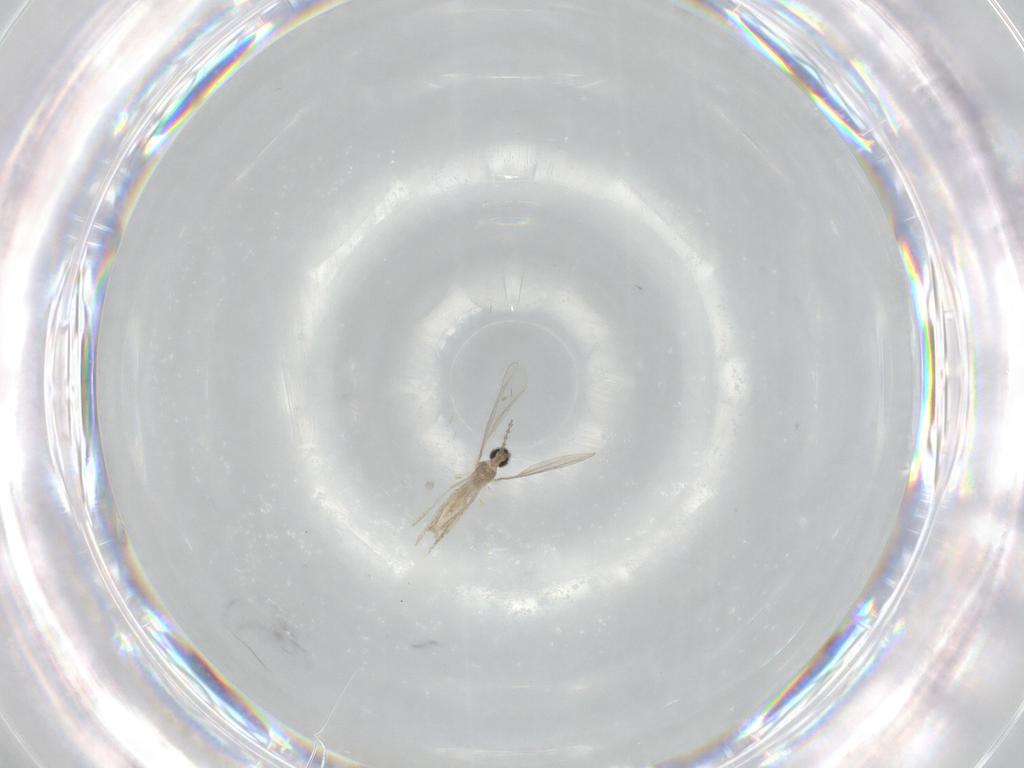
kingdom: Animalia
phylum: Arthropoda
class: Insecta
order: Diptera
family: Cecidomyiidae
